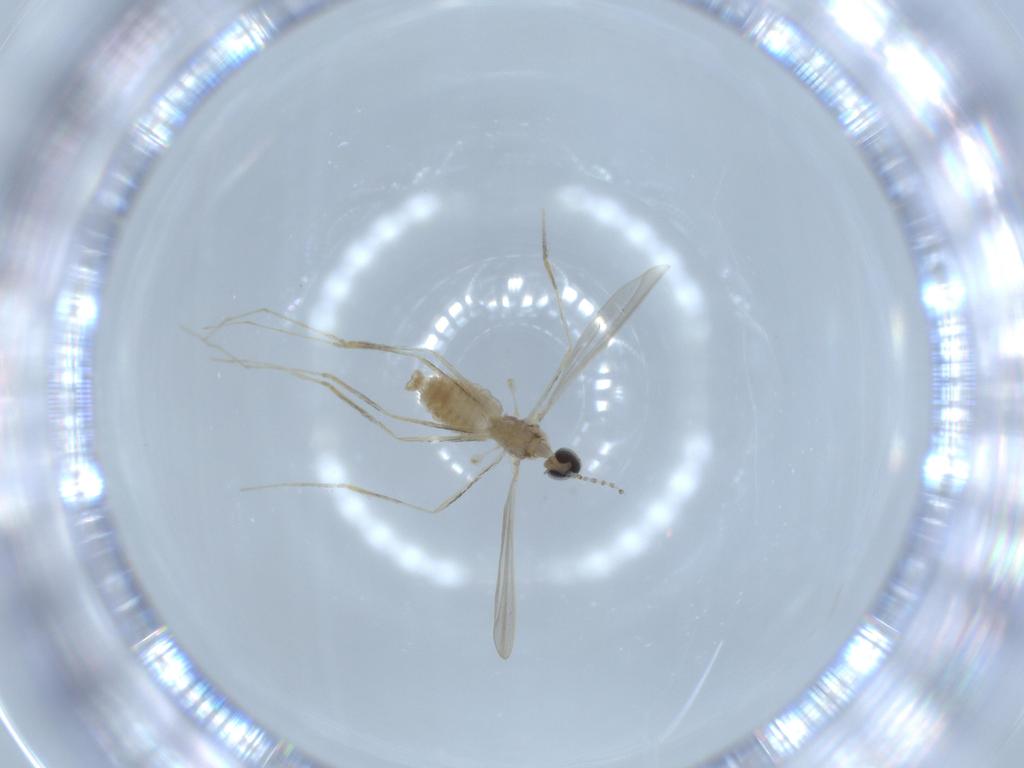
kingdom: Animalia
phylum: Arthropoda
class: Insecta
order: Diptera
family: Cecidomyiidae
